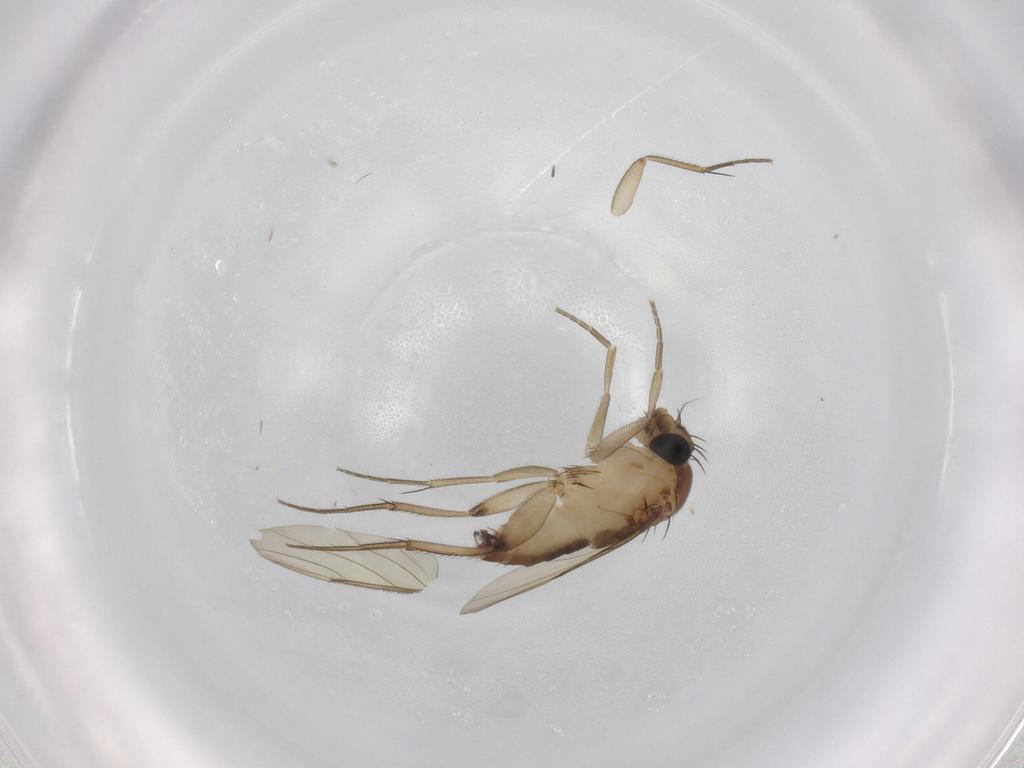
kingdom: Animalia
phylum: Arthropoda
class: Insecta
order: Diptera
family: Phoridae
